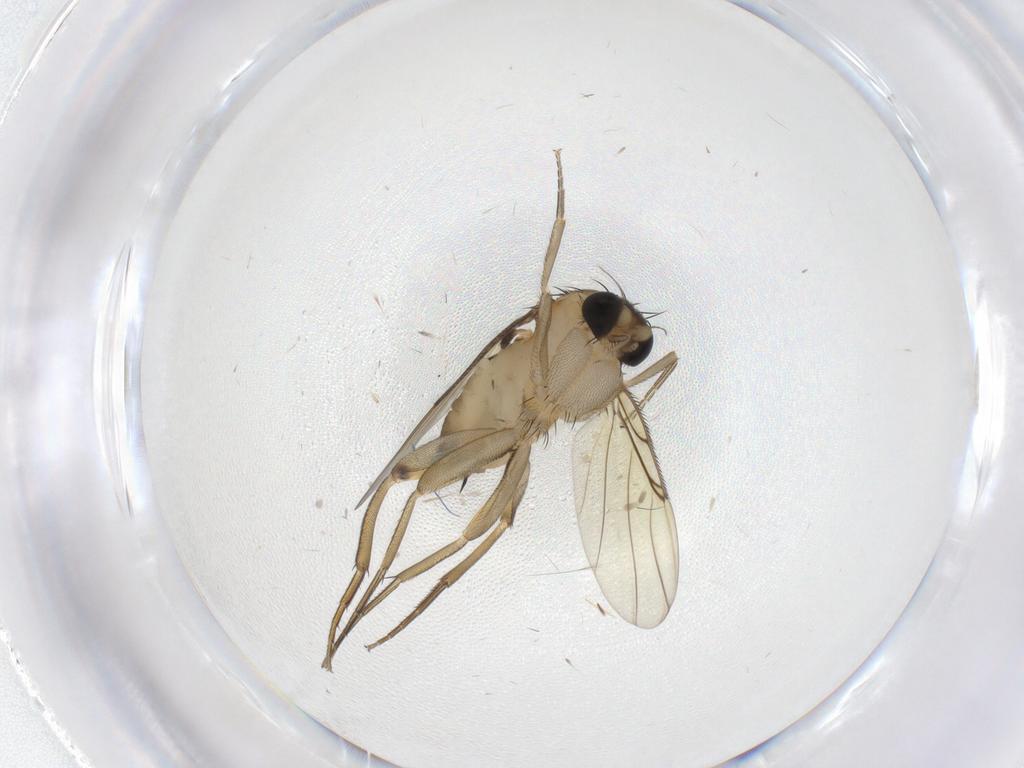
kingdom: Animalia
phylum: Arthropoda
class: Insecta
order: Diptera
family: Phoridae
